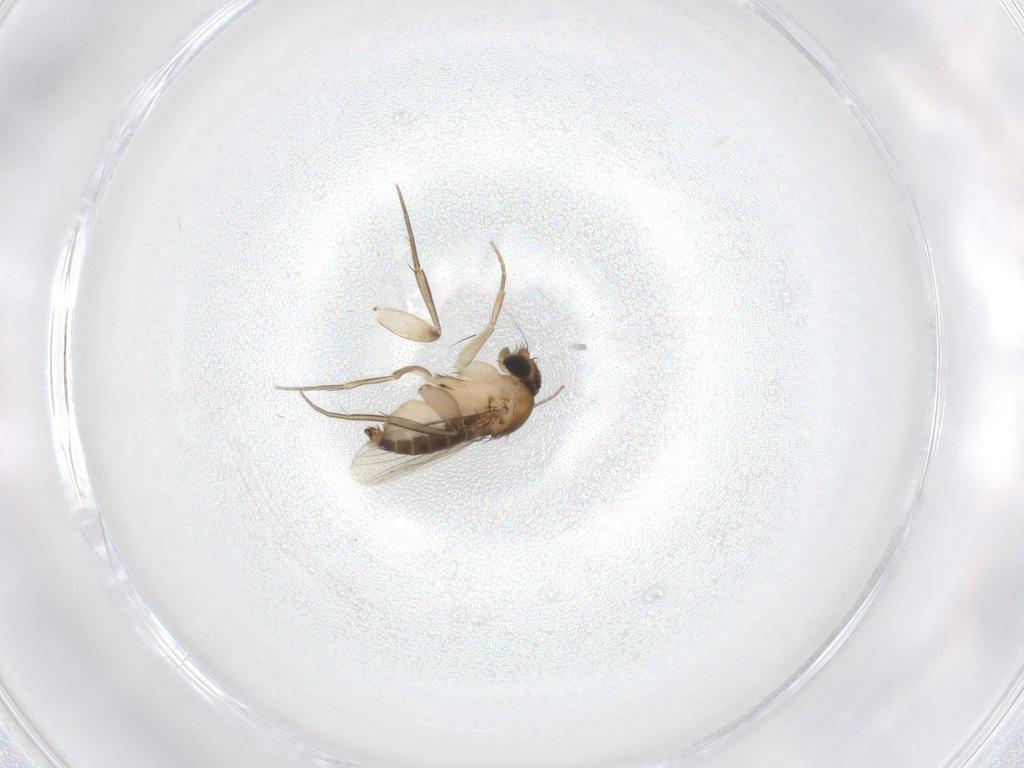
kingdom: Animalia
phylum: Arthropoda
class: Insecta
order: Diptera
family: Phoridae
